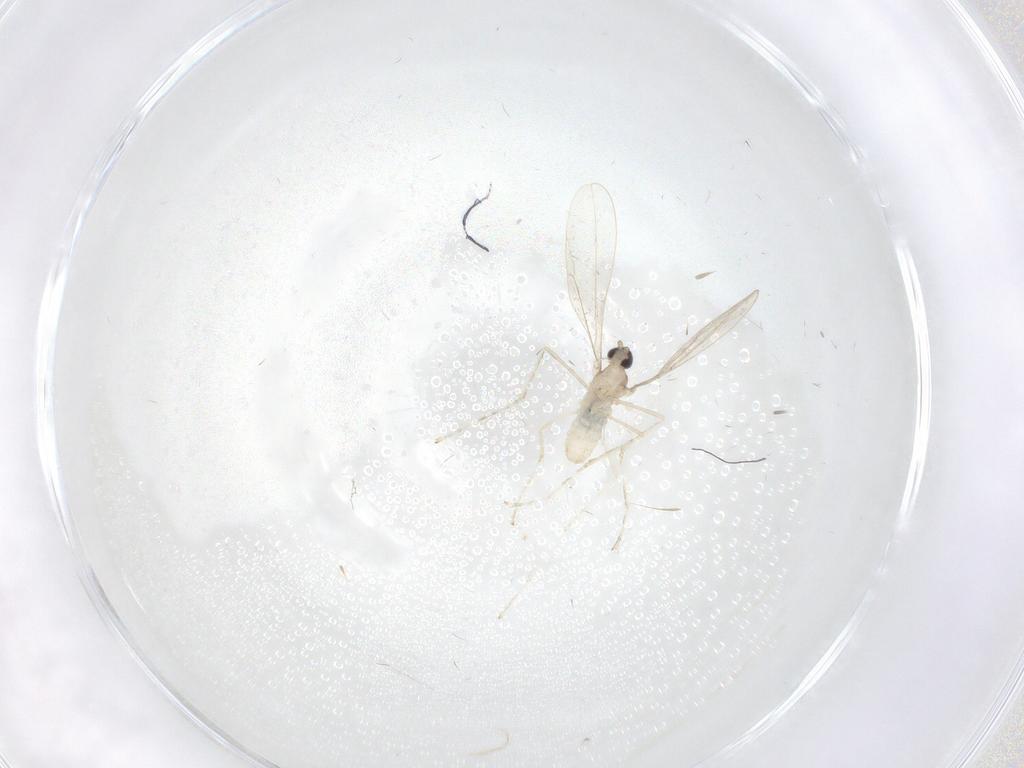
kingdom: Animalia
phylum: Arthropoda
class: Insecta
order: Diptera
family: Cecidomyiidae
